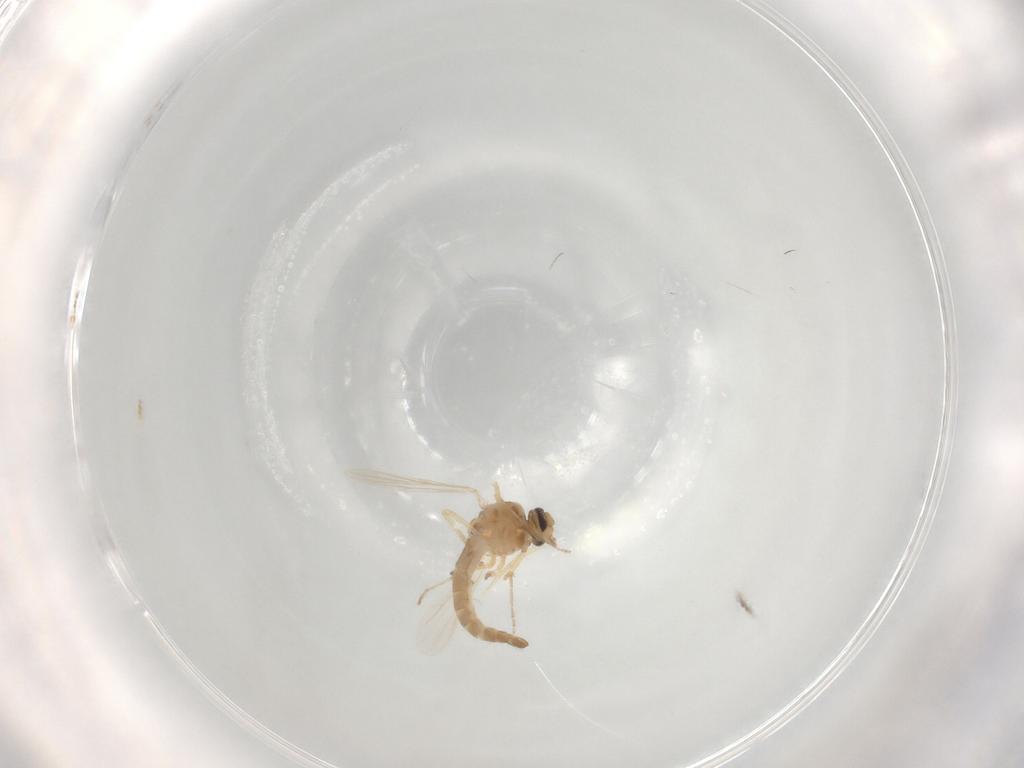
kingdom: Animalia
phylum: Arthropoda
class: Insecta
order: Diptera
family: Ceratopogonidae
